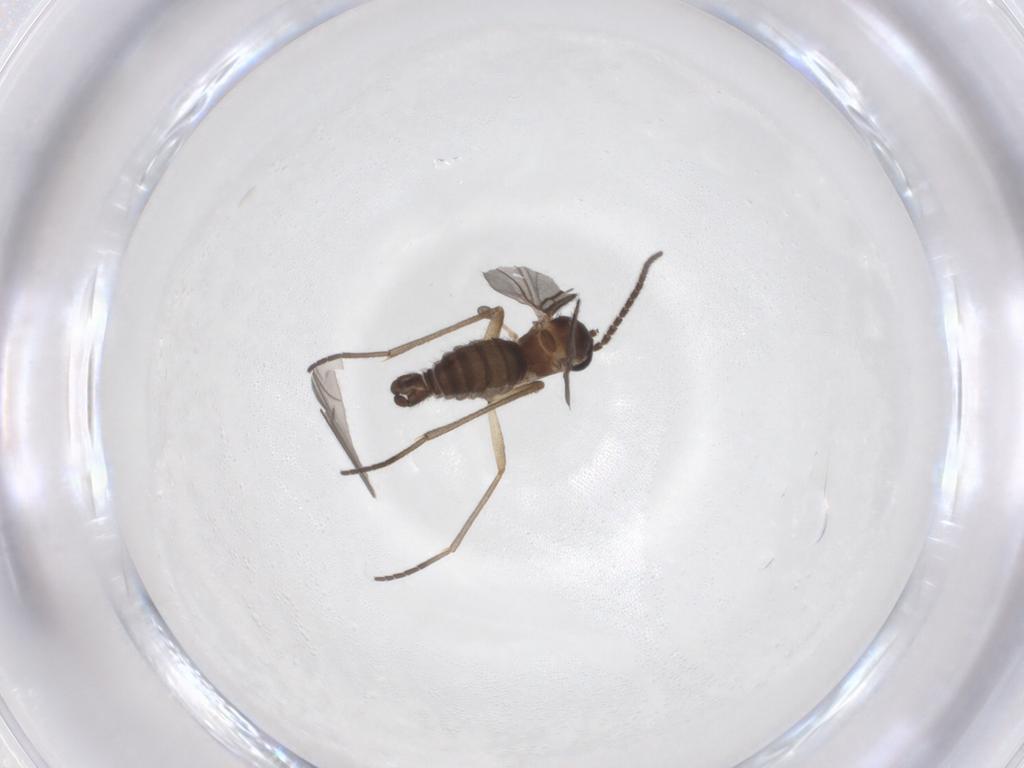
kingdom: Animalia
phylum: Arthropoda
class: Insecta
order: Diptera
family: Sciaridae
